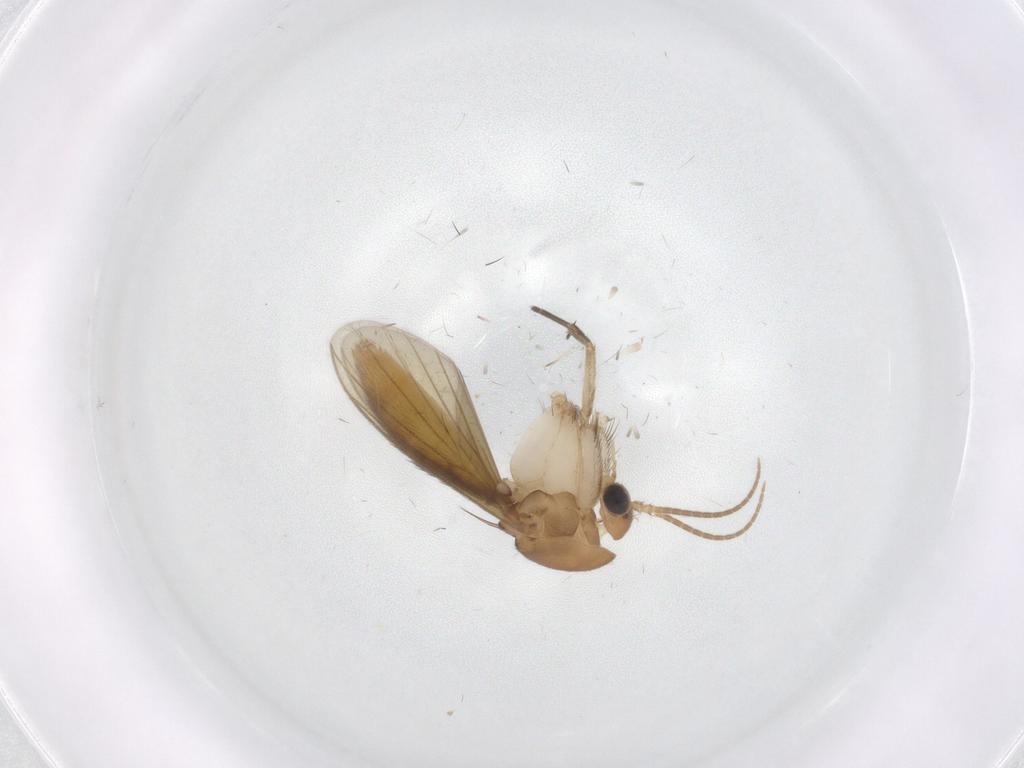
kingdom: Animalia
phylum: Arthropoda
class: Insecta
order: Diptera
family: Mycetophilidae
